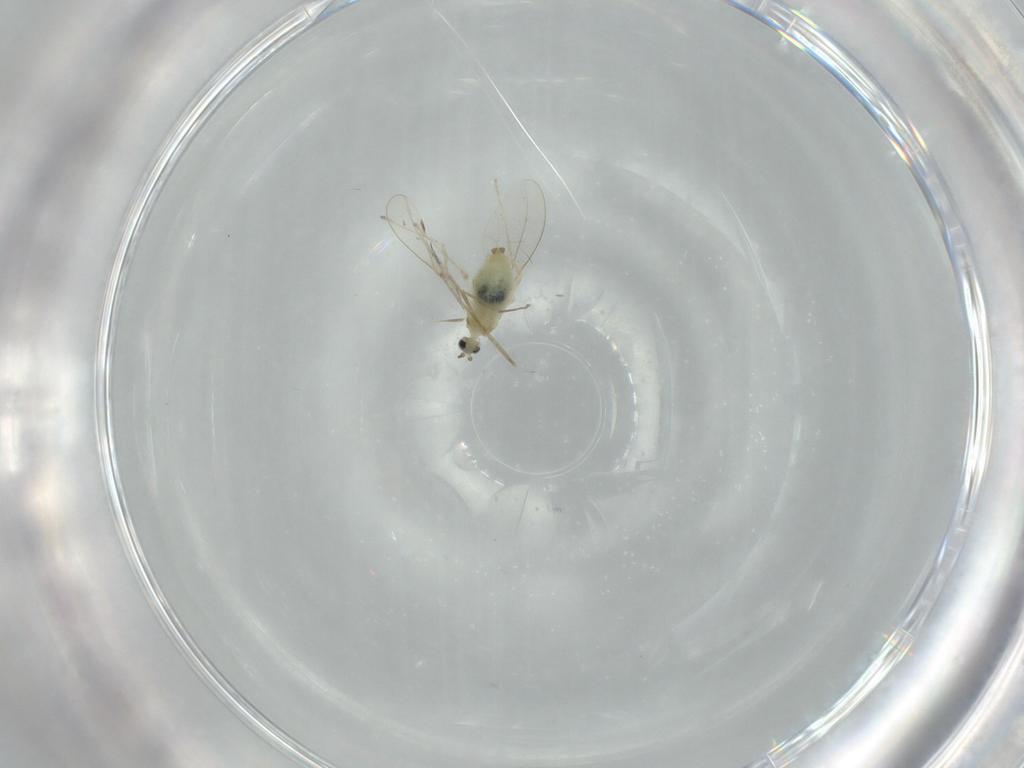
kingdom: Animalia
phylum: Arthropoda
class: Insecta
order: Diptera
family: Cecidomyiidae
